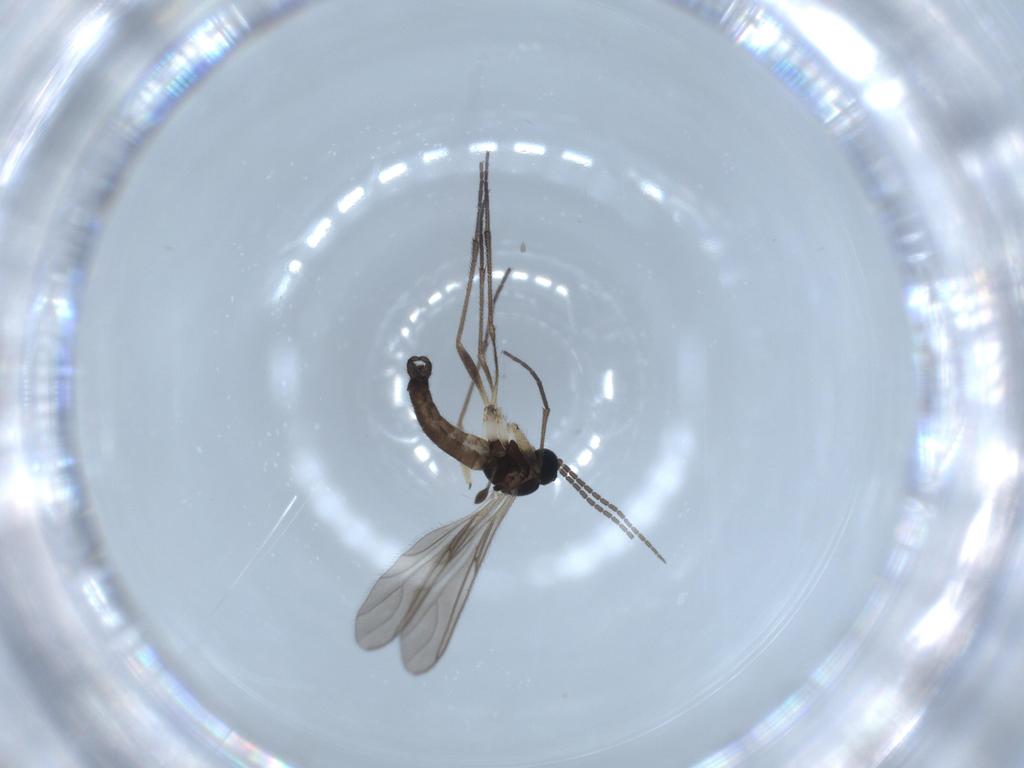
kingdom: Animalia
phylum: Arthropoda
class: Insecta
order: Diptera
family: Sciaridae
